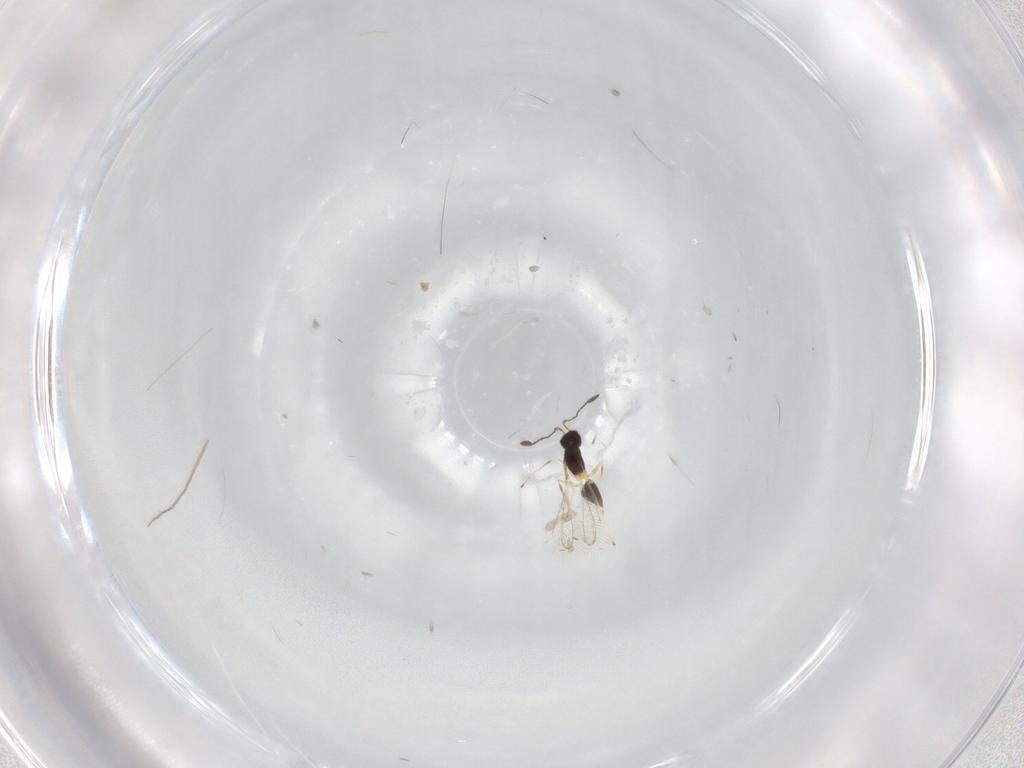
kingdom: Animalia
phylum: Arthropoda
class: Insecta
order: Hymenoptera
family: Mymaridae
